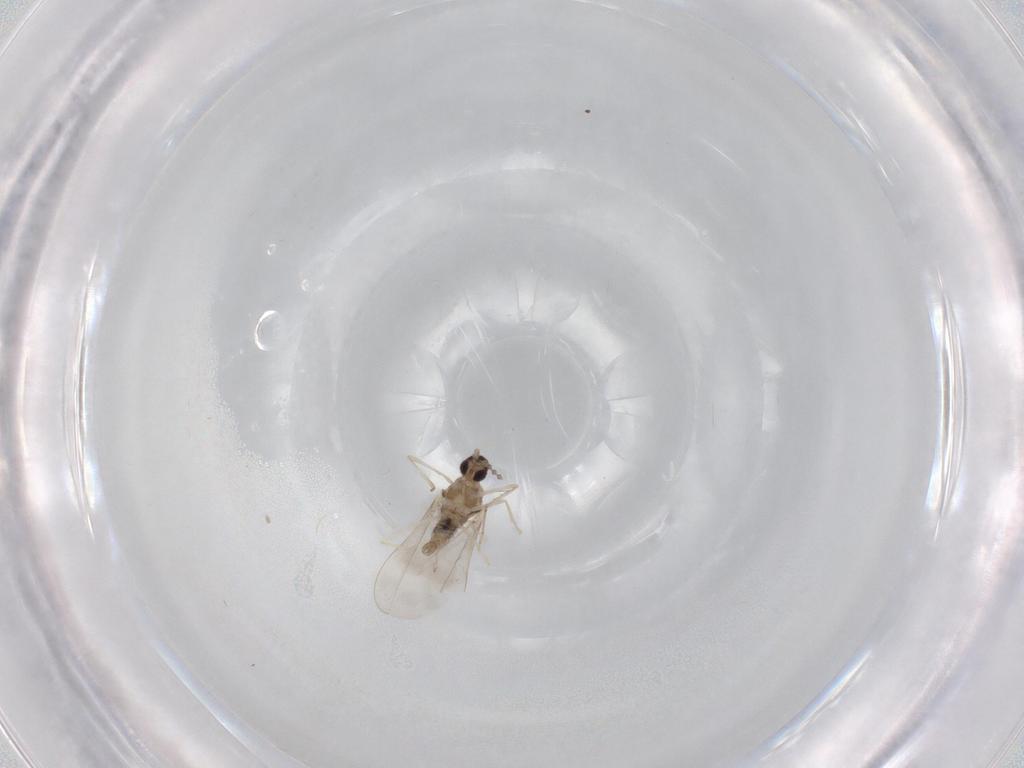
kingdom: Animalia
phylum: Arthropoda
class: Insecta
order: Diptera
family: Cecidomyiidae
